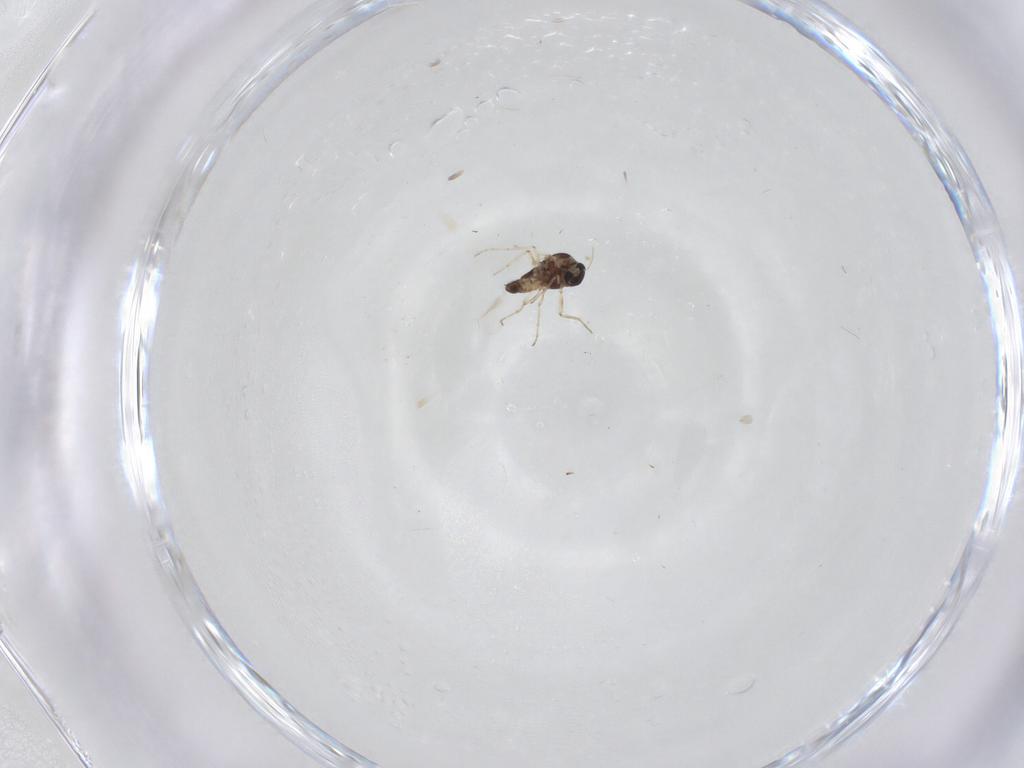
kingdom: Animalia
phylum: Arthropoda
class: Insecta
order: Diptera
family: Ceratopogonidae
